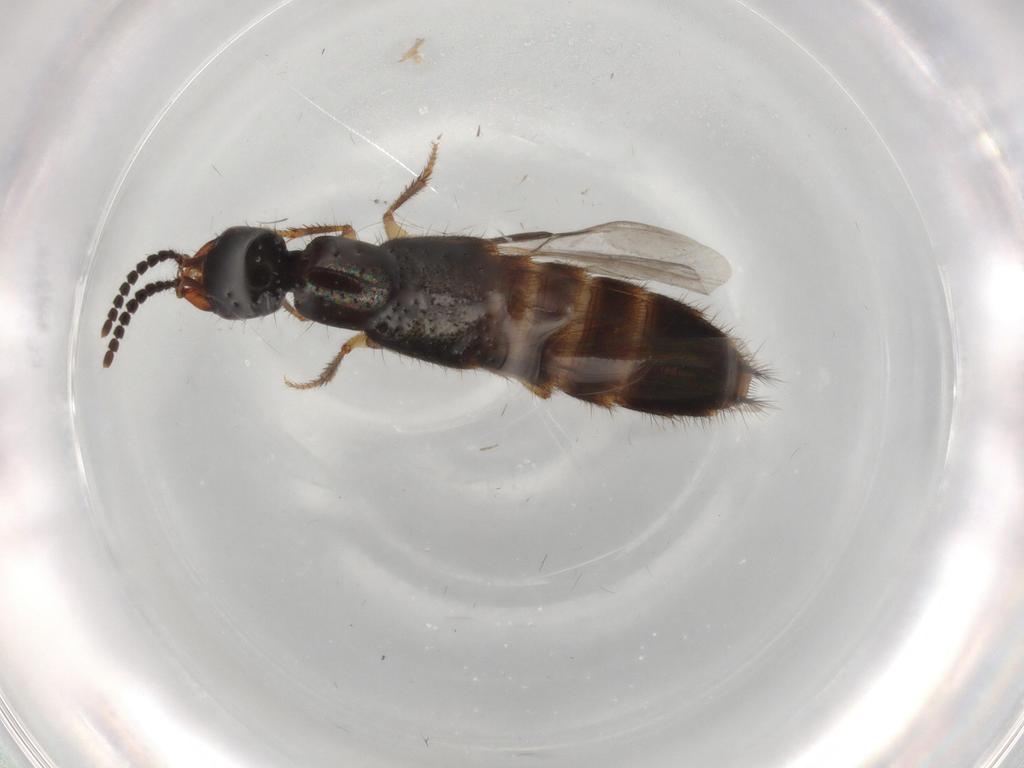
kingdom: Animalia
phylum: Arthropoda
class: Insecta
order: Coleoptera
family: Coccinellidae
